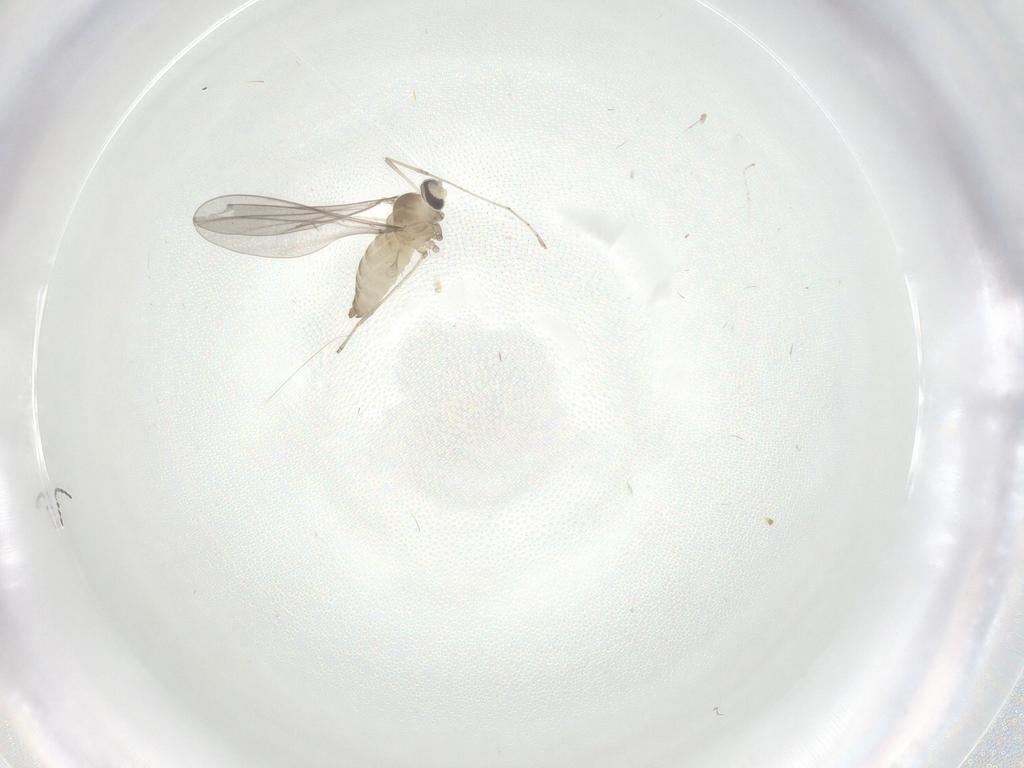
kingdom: Animalia
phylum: Arthropoda
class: Insecta
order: Diptera
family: Cecidomyiidae
